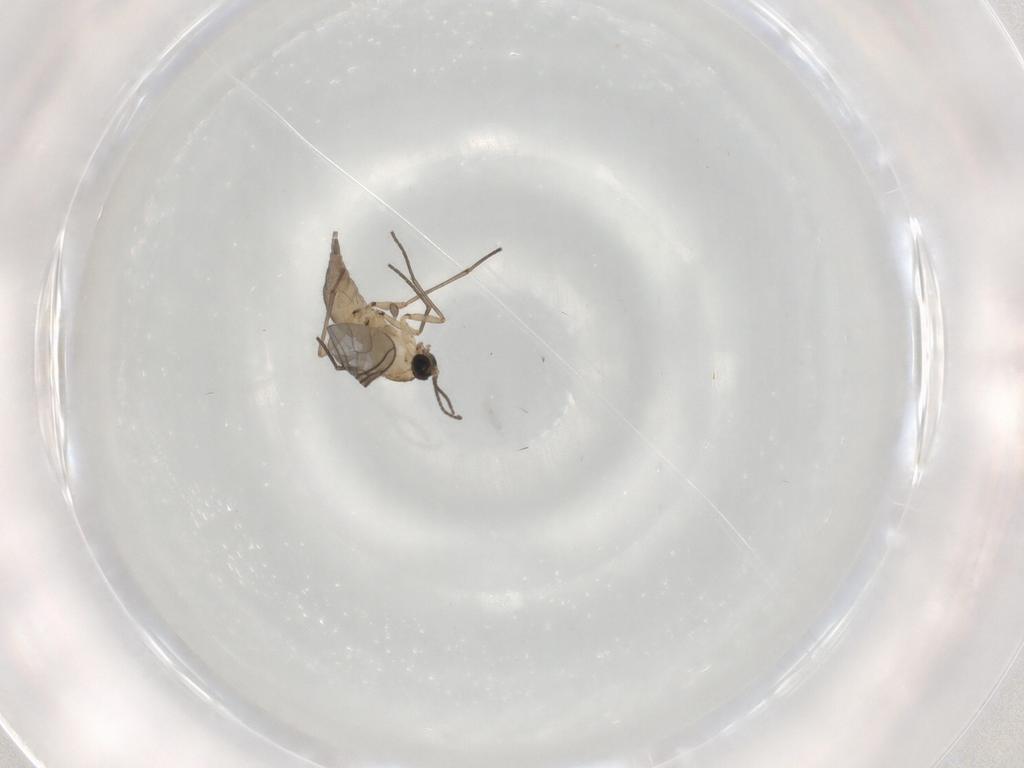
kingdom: Animalia
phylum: Arthropoda
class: Insecta
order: Diptera
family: Sciaridae
